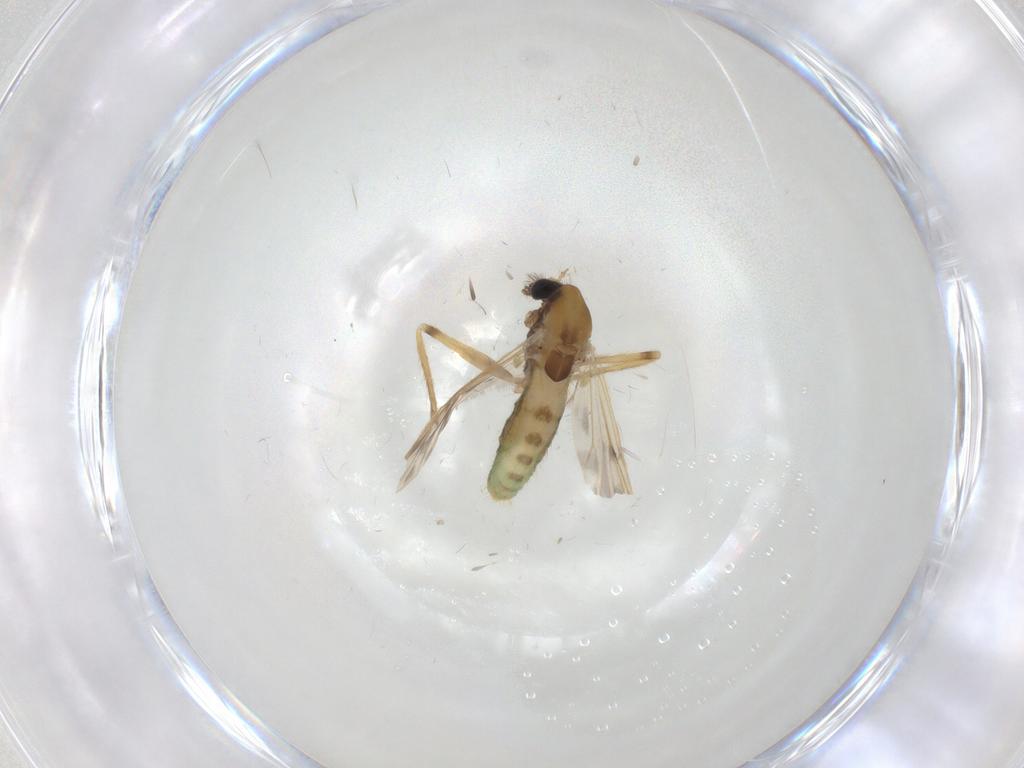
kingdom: Animalia
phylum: Arthropoda
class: Insecta
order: Diptera
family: Chironomidae
